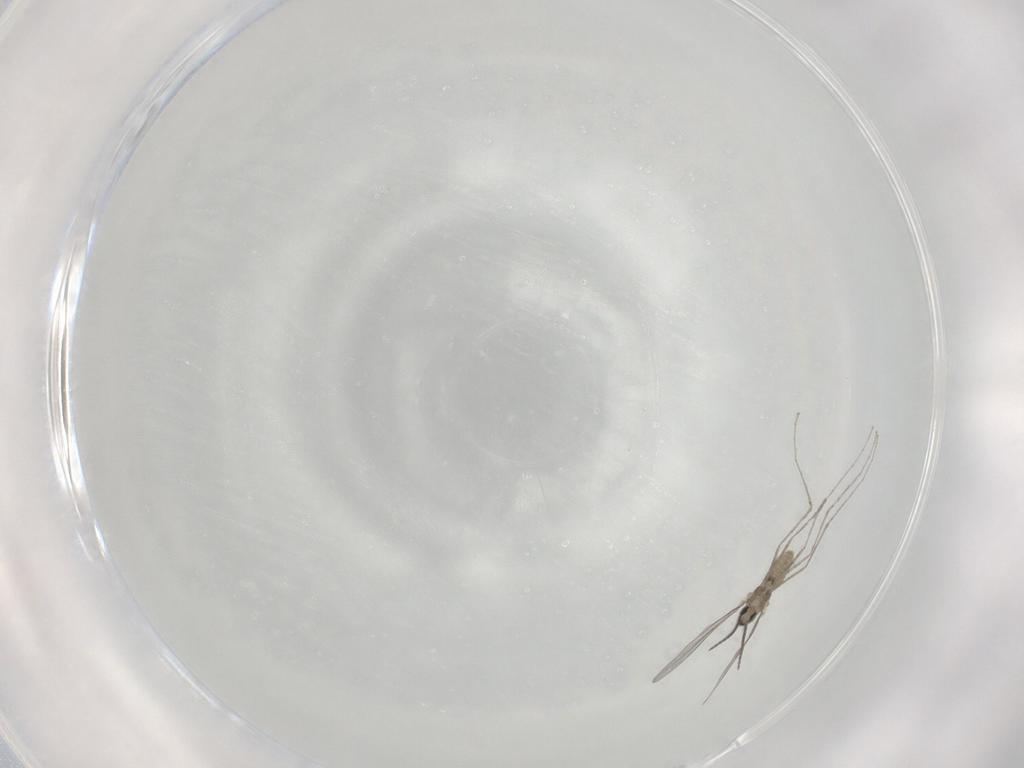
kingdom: Animalia
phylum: Arthropoda
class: Insecta
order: Diptera
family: Cecidomyiidae
